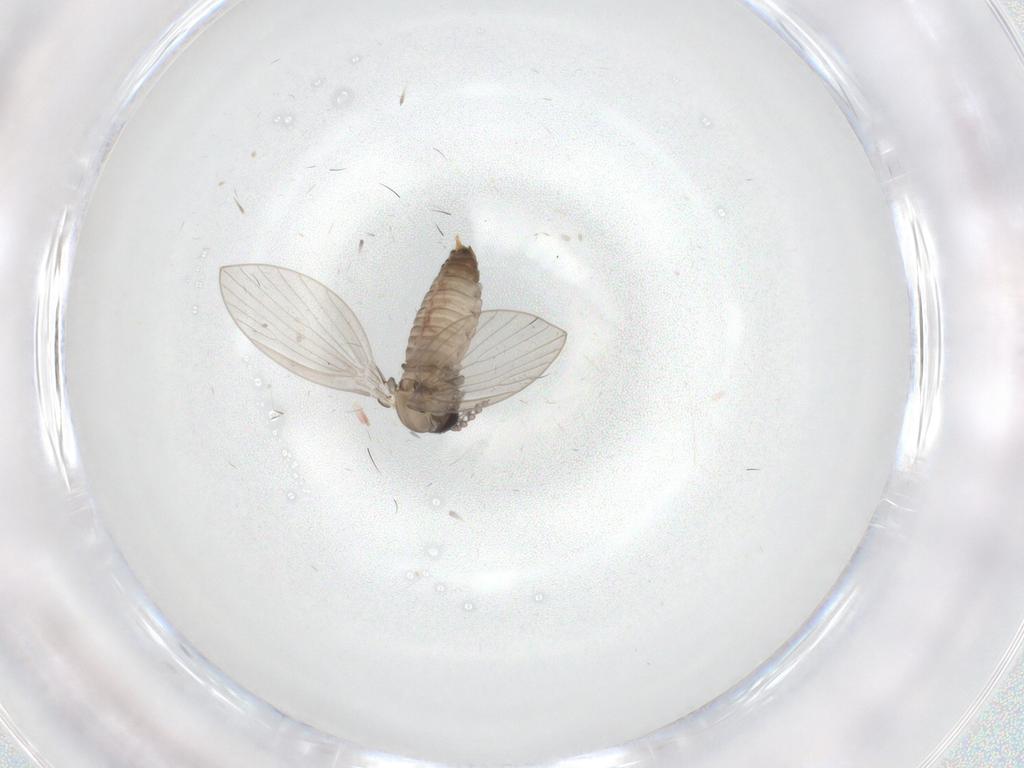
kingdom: Animalia
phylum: Arthropoda
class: Insecta
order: Diptera
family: Psychodidae
